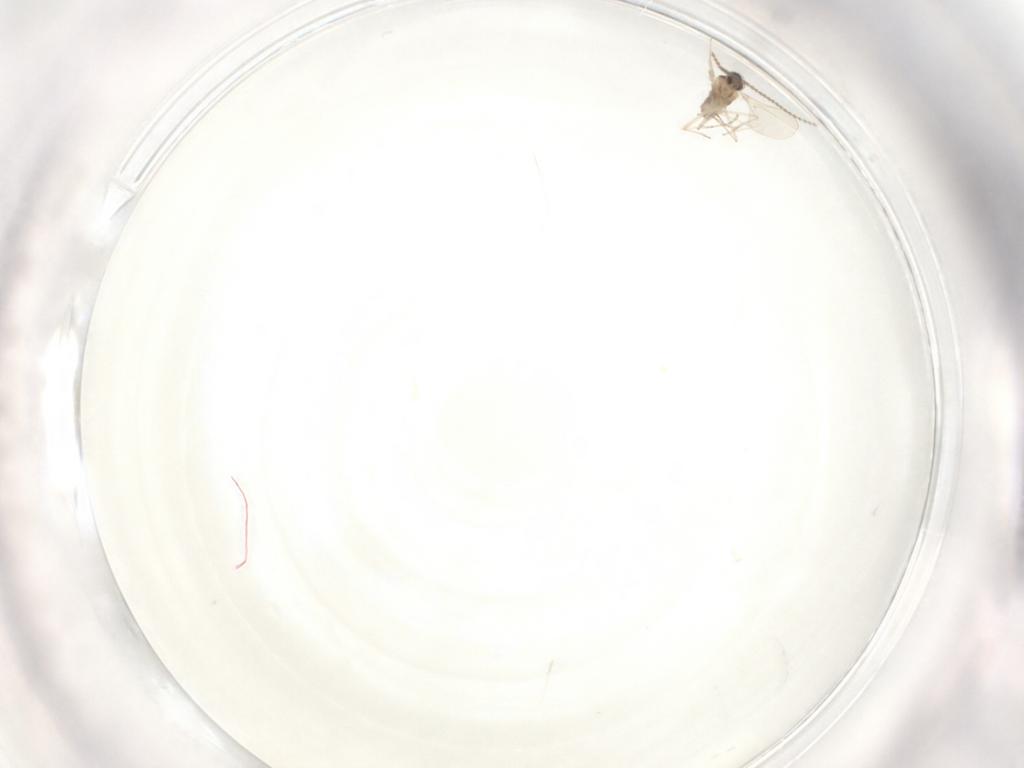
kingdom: Animalia
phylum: Arthropoda
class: Insecta
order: Diptera
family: Cecidomyiidae
